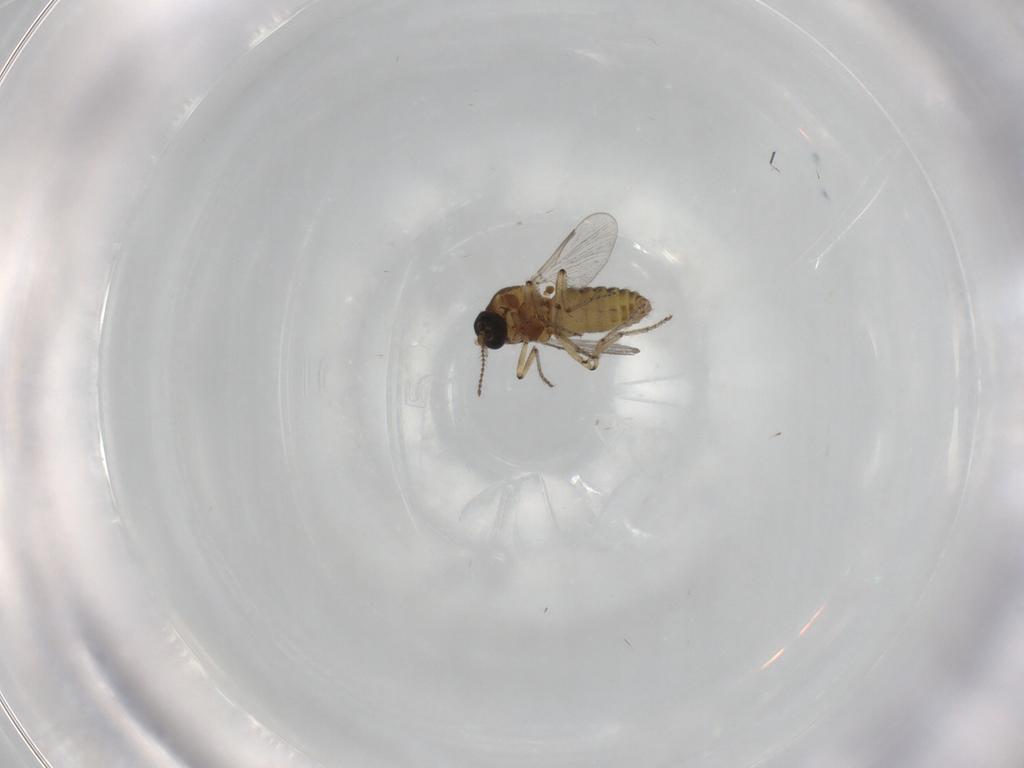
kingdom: Animalia
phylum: Arthropoda
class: Insecta
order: Diptera
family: Ceratopogonidae
